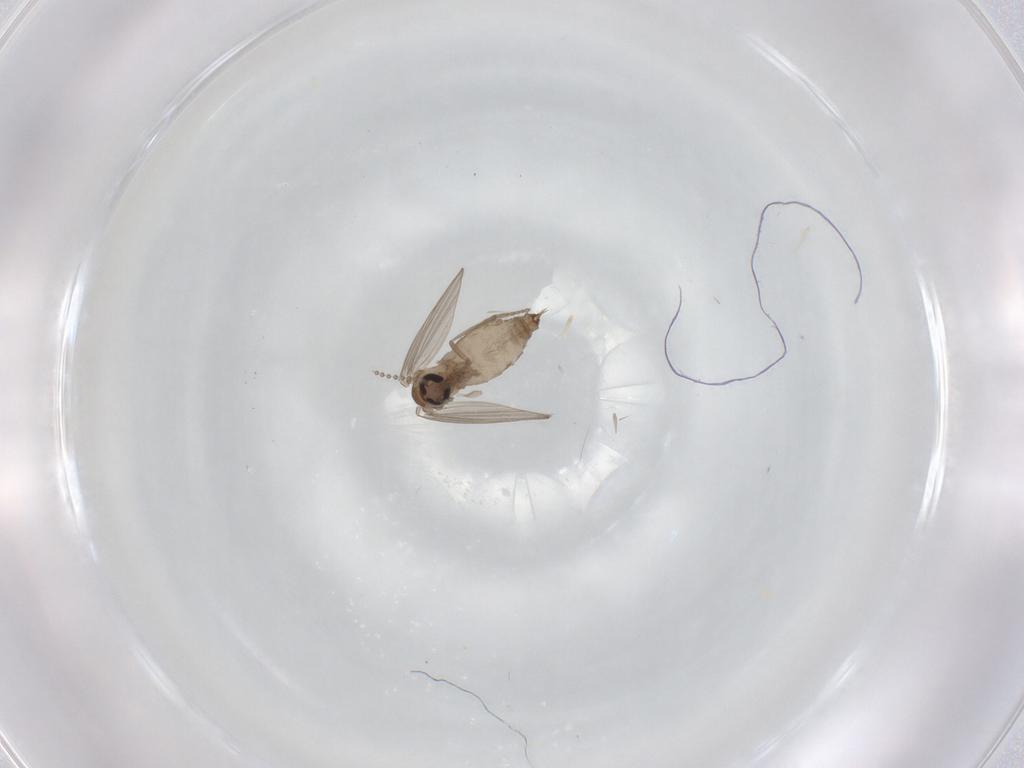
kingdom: Animalia
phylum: Arthropoda
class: Insecta
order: Diptera
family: Psychodidae
